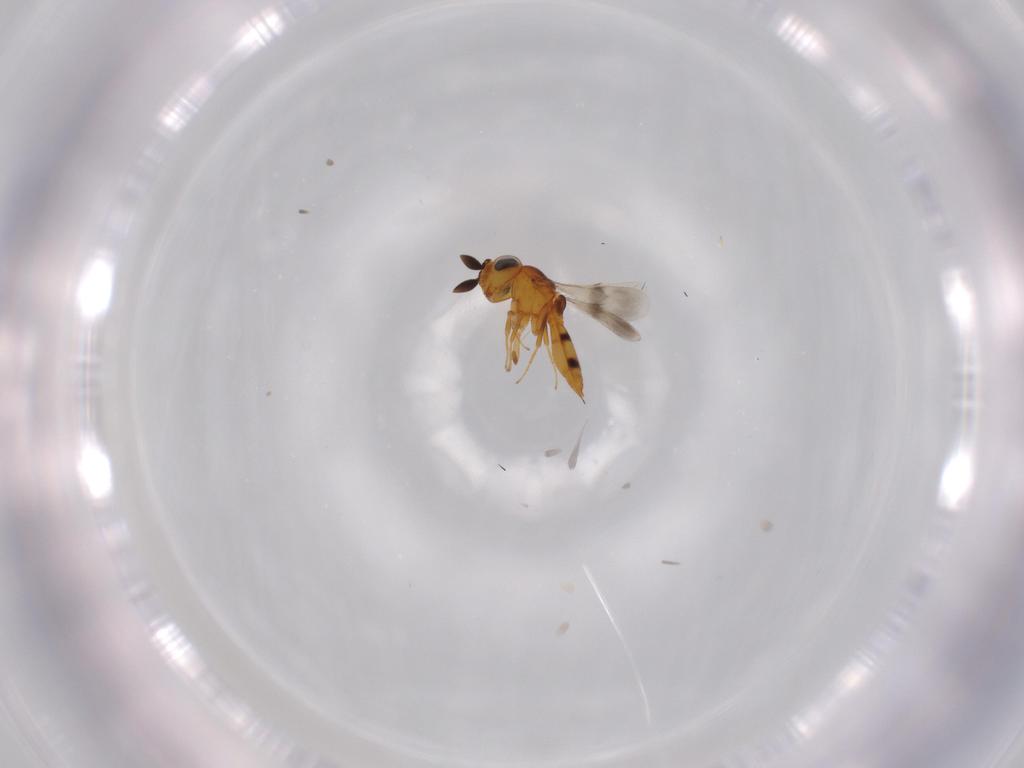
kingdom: Animalia
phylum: Arthropoda
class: Insecta
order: Hymenoptera
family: Scelionidae
